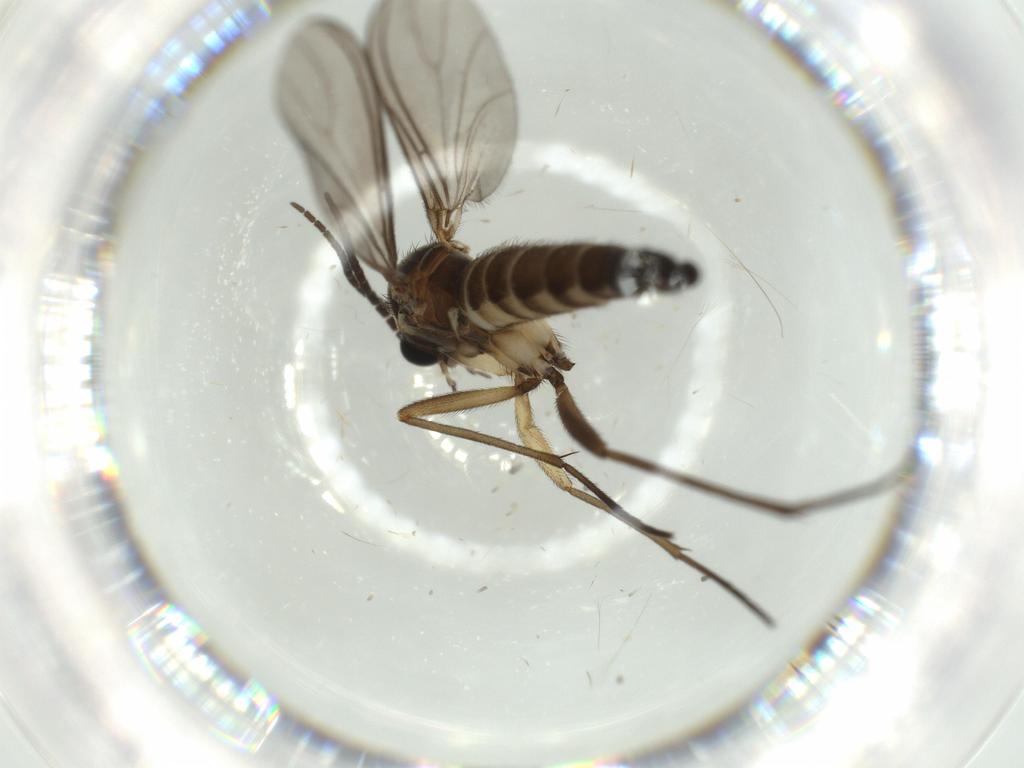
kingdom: Animalia
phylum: Arthropoda
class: Insecta
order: Diptera
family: Sciaridae
